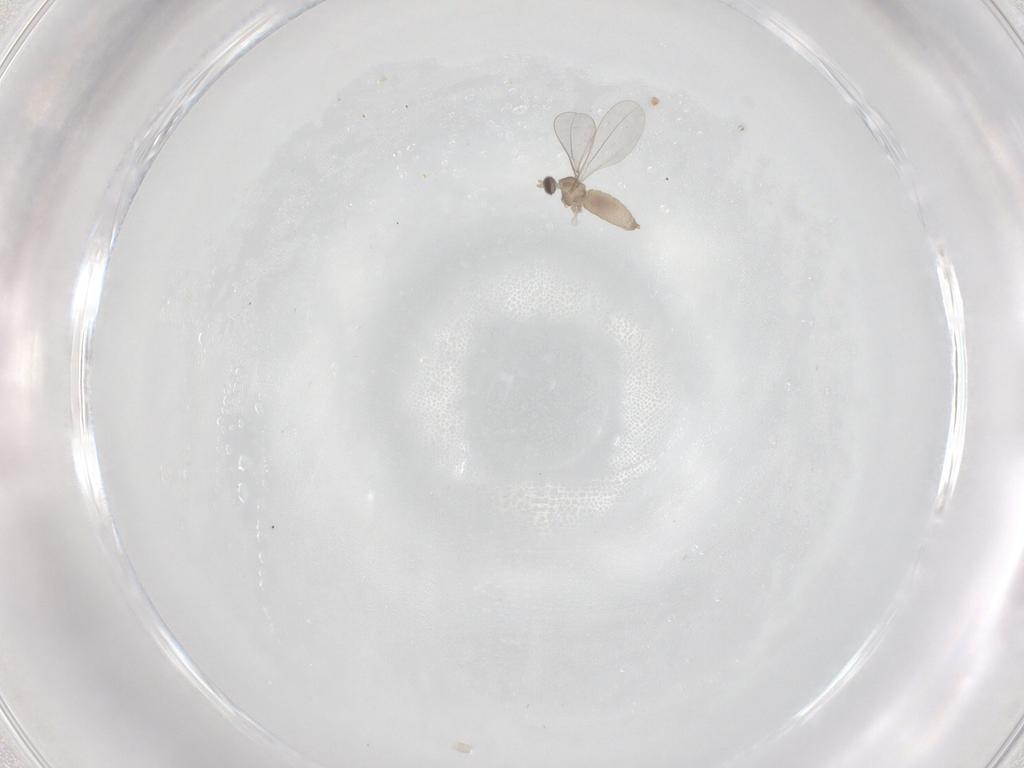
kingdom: Animalia
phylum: Arthropoda
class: Insecta
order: Diptera
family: Cecidomyiidae
